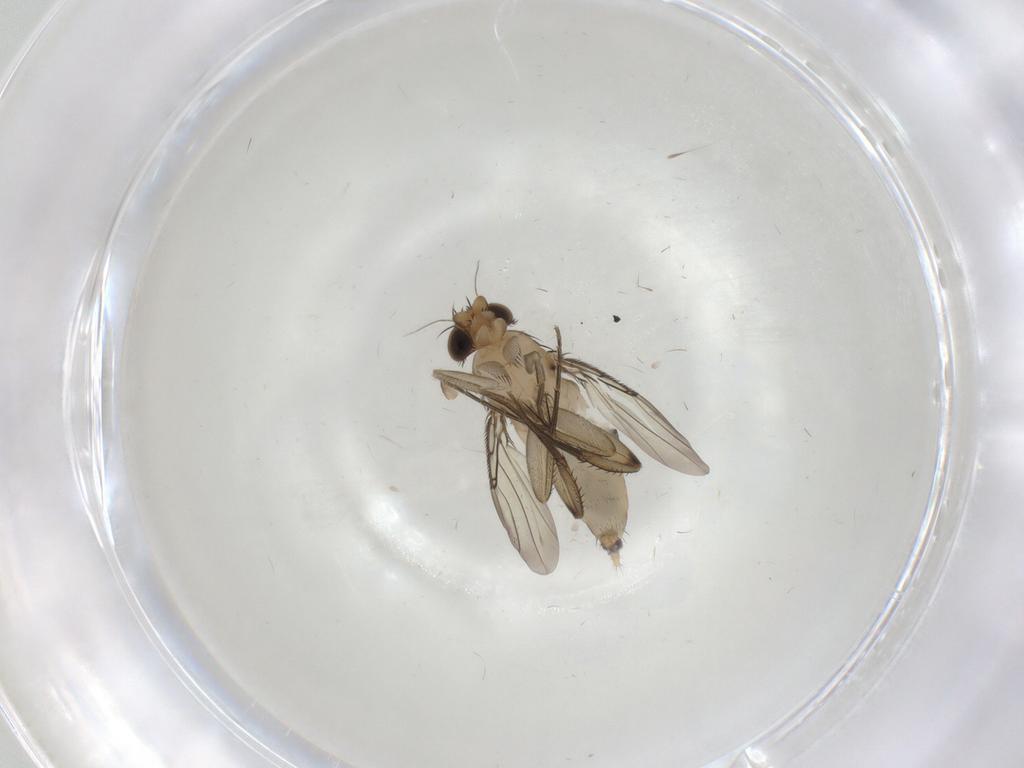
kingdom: Animalia
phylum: Arthropoda
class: Insecta
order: Diptera
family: Phoridae
